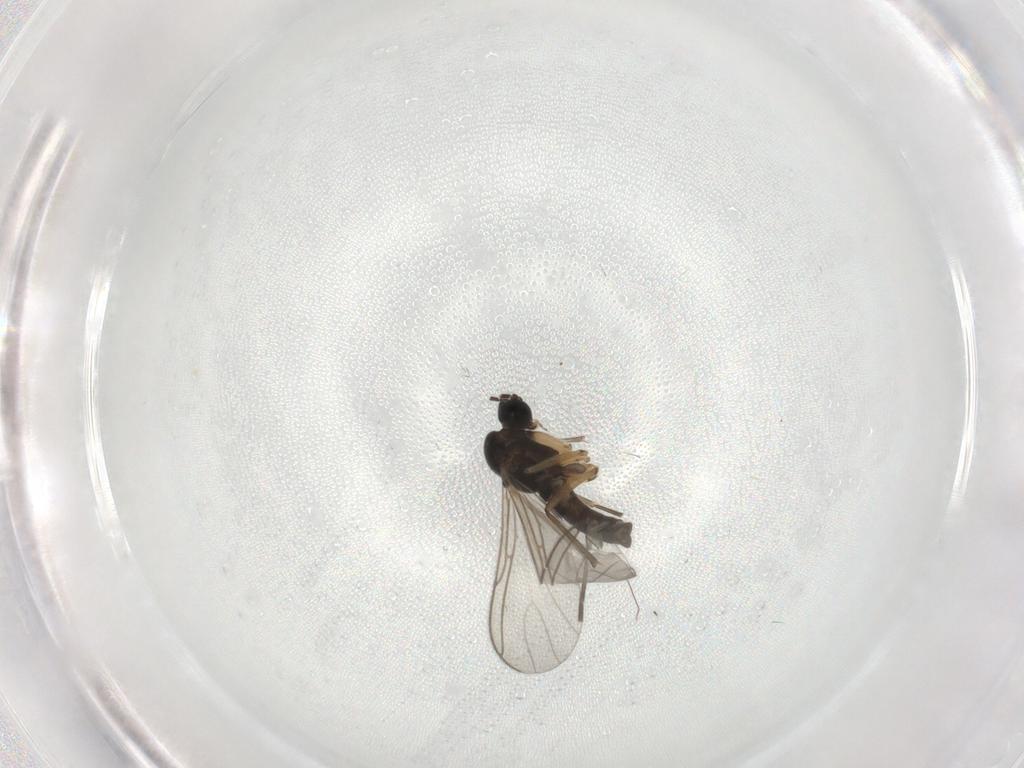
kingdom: Animalia
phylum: Arthropoda
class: Insecta
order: Diptera
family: Sciaridae
